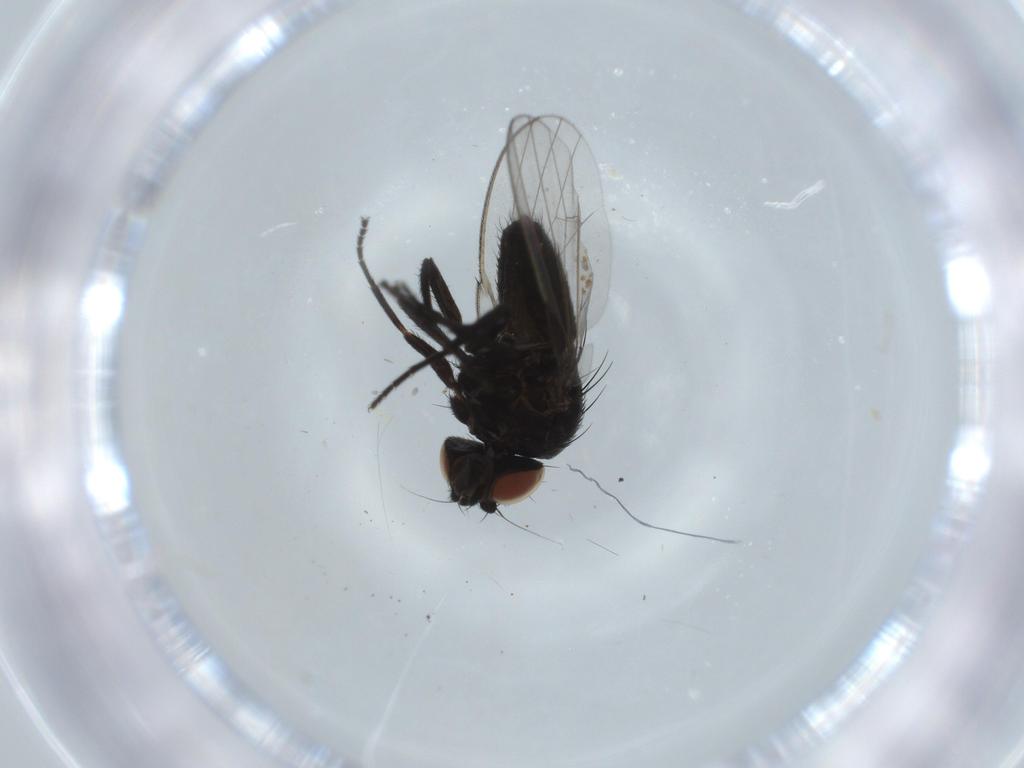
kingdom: Animalia
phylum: Arthropoda
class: Insecta
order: Diptera
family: Milichiidae
